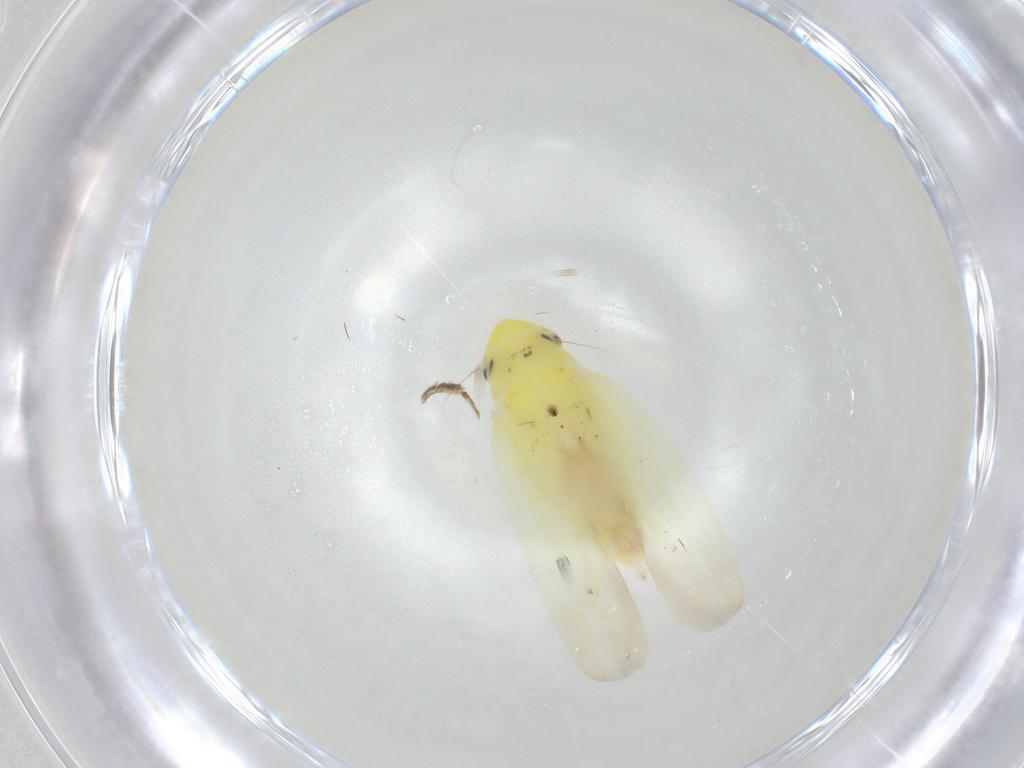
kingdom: Animalia
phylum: Arthropoda
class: Insecta
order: Hemiptera
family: Cicadellidae
